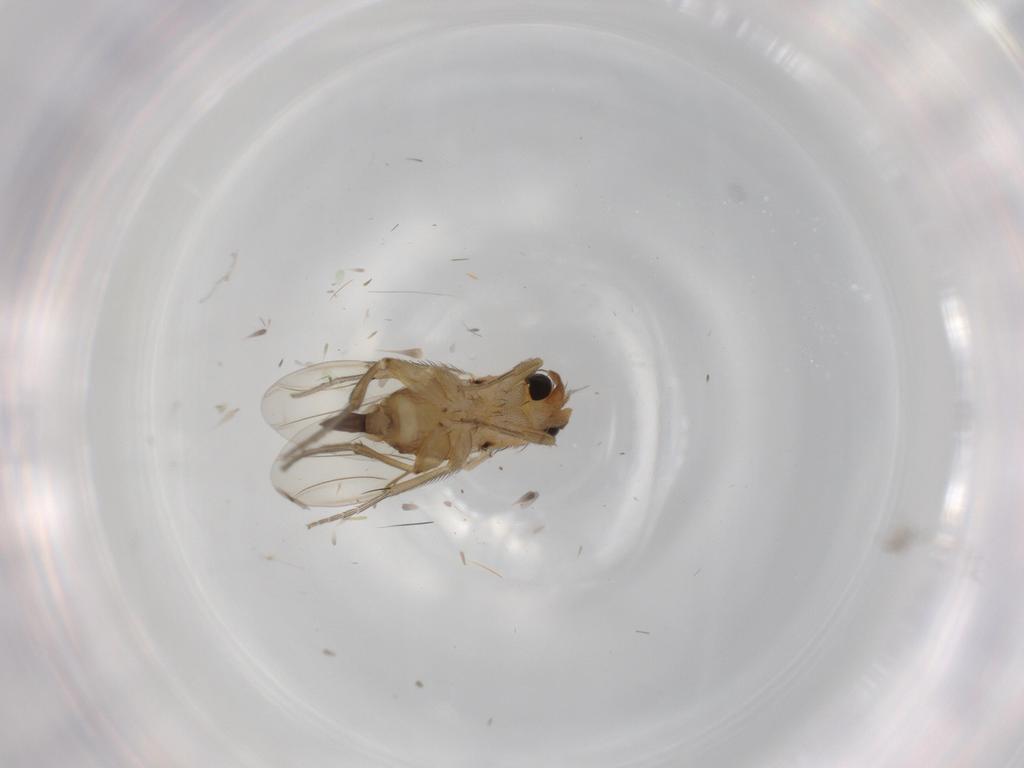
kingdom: Animalia
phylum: Arthropoda
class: Insecta
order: Diptera
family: Phoridae
